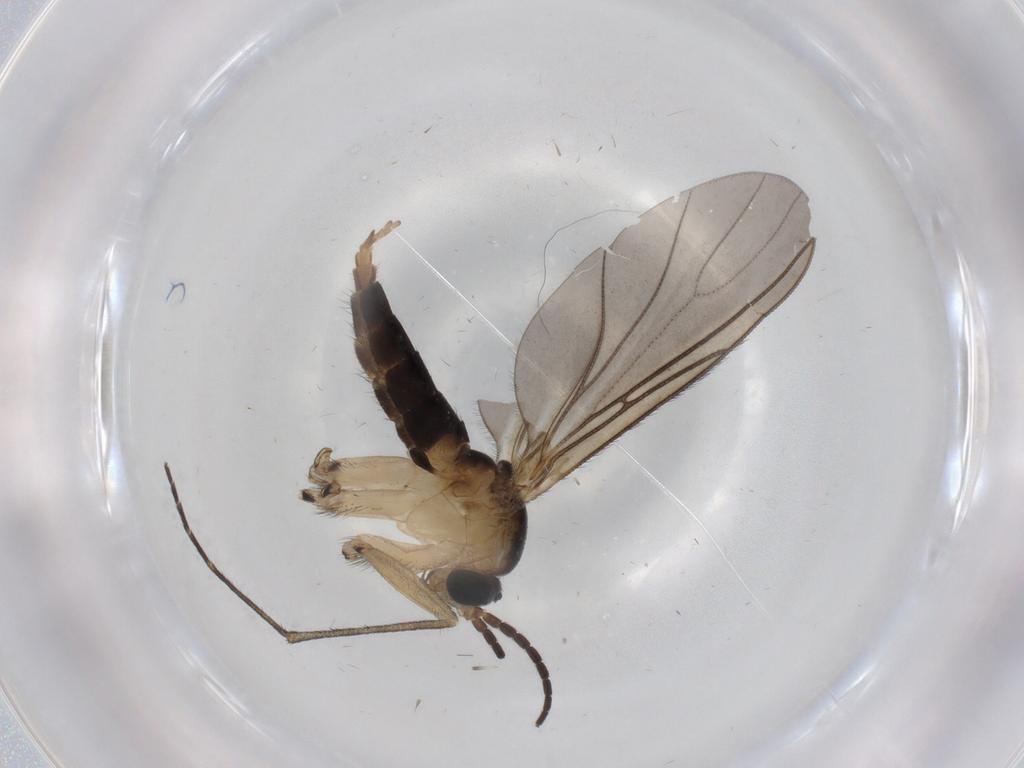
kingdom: Animalia
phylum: Arthropoda
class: Insecta
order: Diptera
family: Sciaridae
